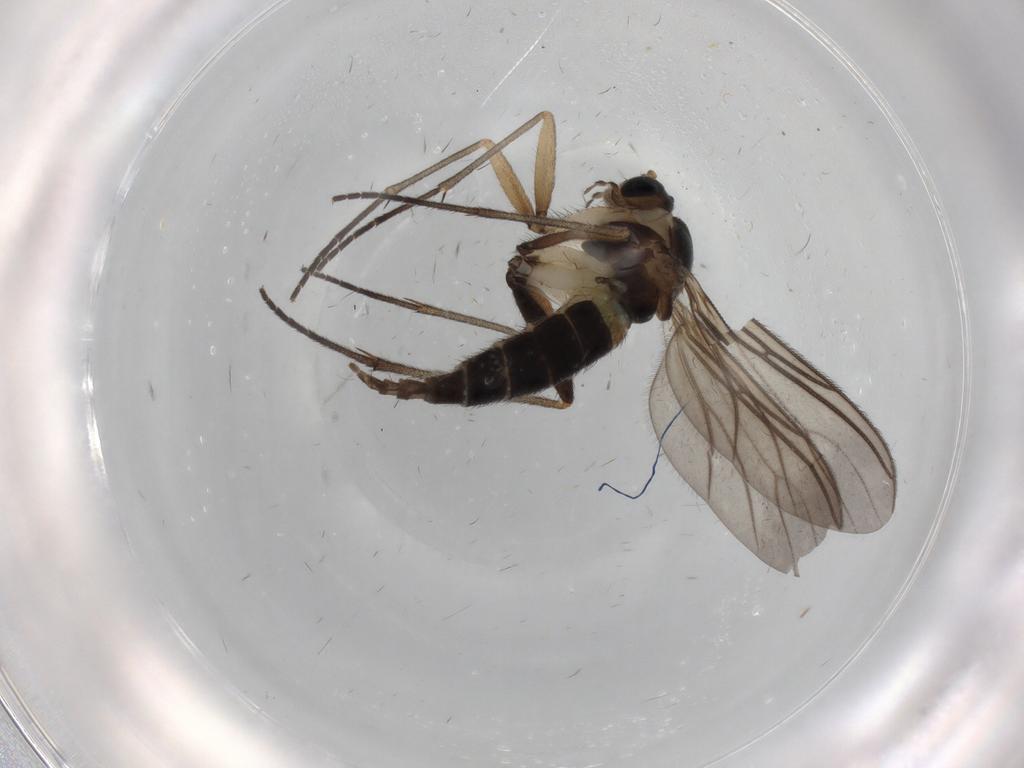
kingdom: Animalia
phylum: Arthropoda
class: Insecta
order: Diptera
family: Sciaridae
